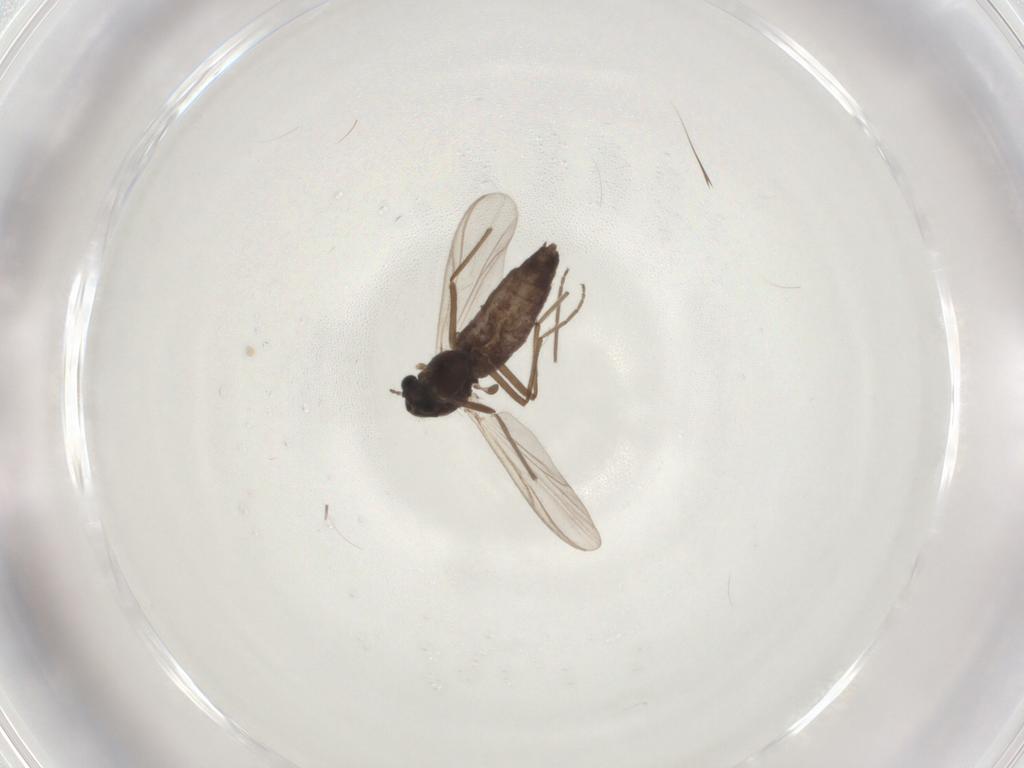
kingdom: Animalia
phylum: Arthropoda
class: Insecta
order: Diptera
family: Chironomidae
